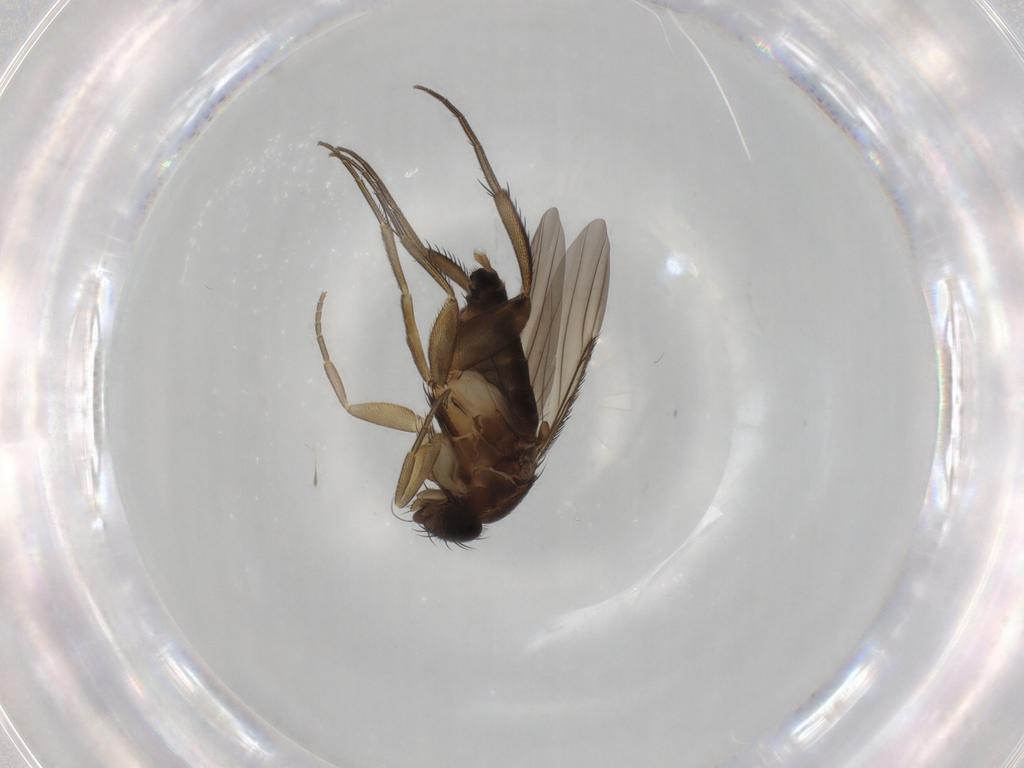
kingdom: Animalia
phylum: Arthropoda
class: Insecta
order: Diptera
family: Phoridae
